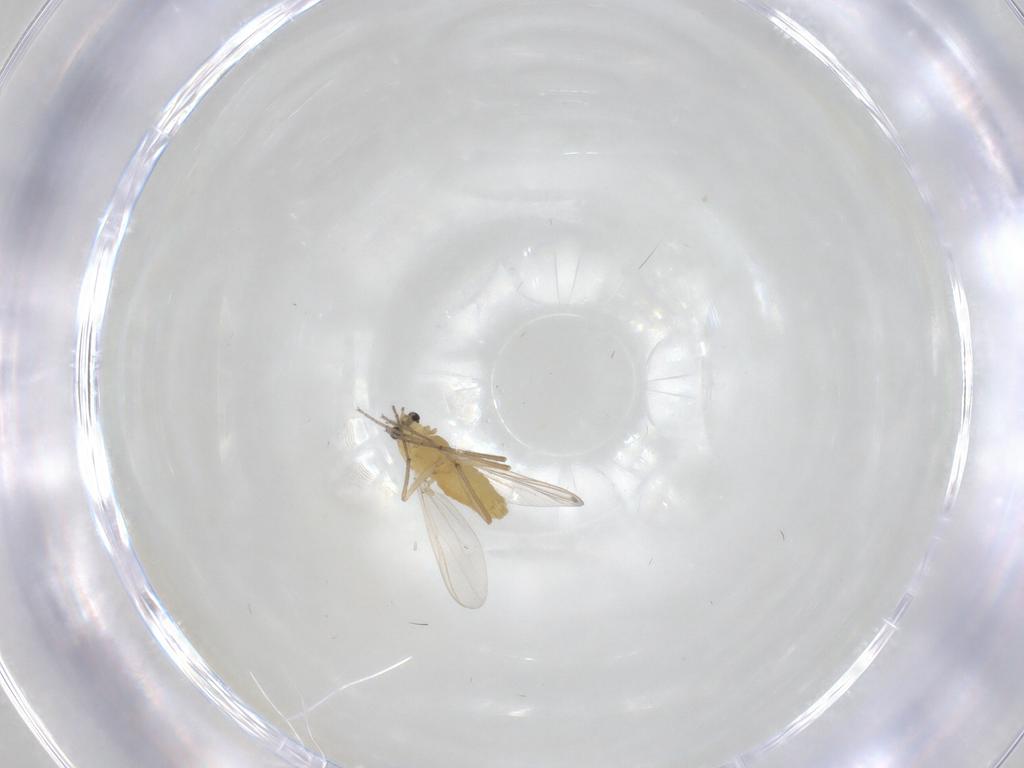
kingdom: Animalia
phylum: Arthropoda
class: Insecta
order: Diptera
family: Chironomidae
